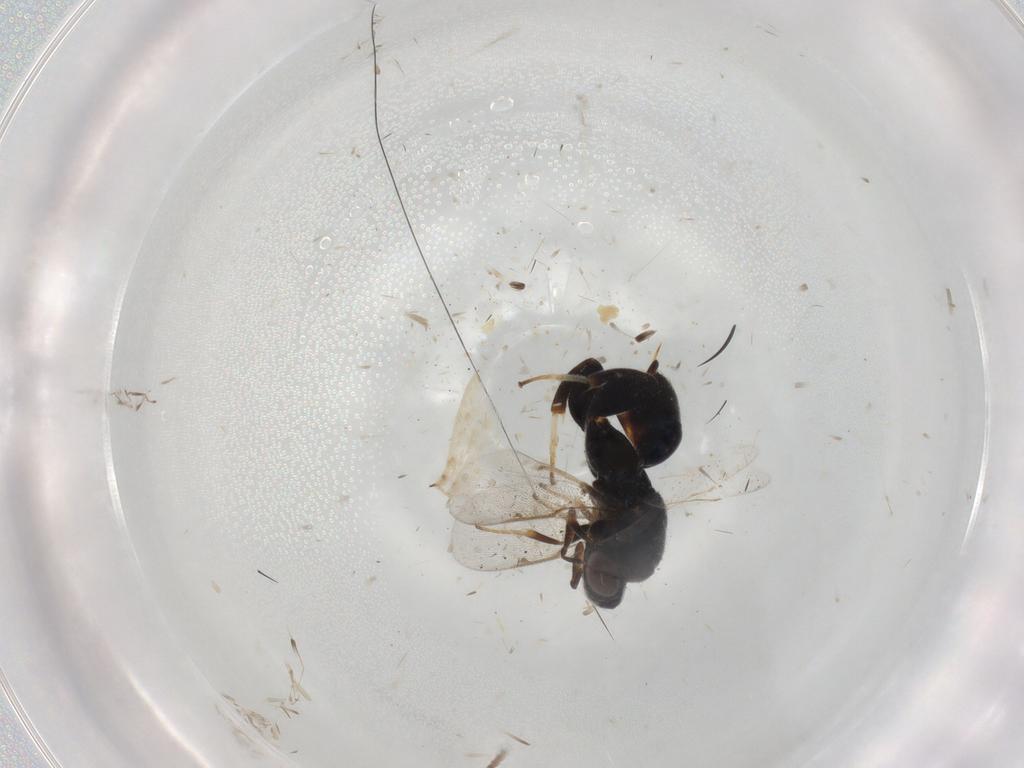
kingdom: Animalia
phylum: Arthropoda
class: Insecta
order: Hymenoptera
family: Torymidae
